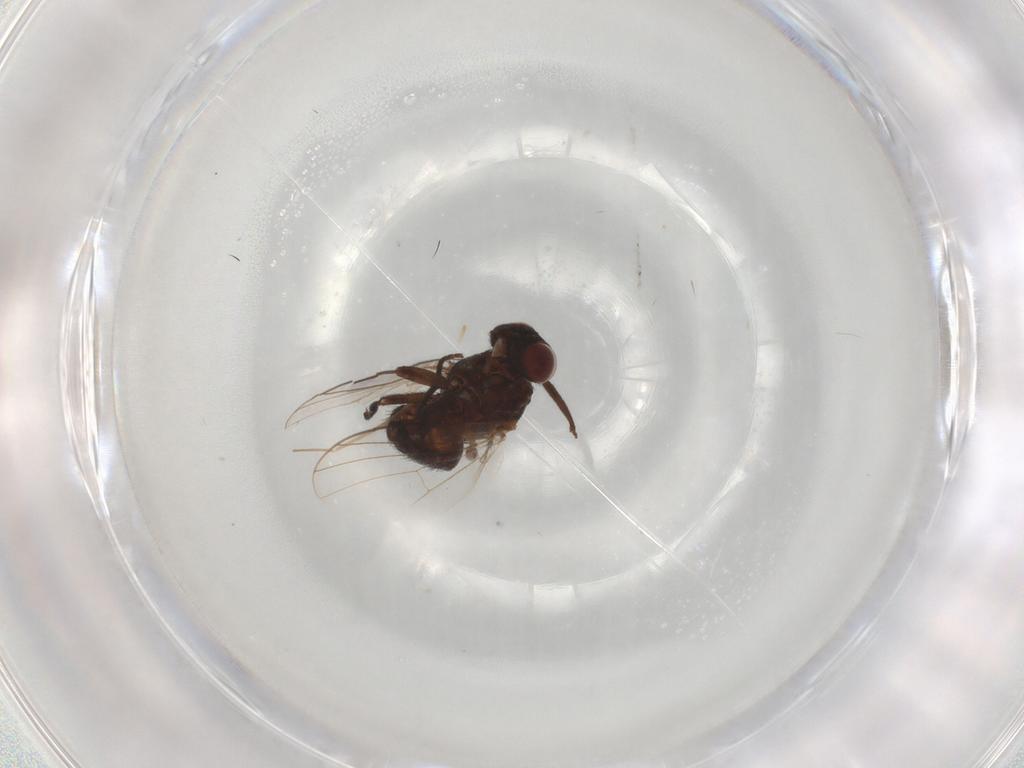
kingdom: Animalia
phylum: Arthropoda
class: Insecta
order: Diptera
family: Agromyzidae
